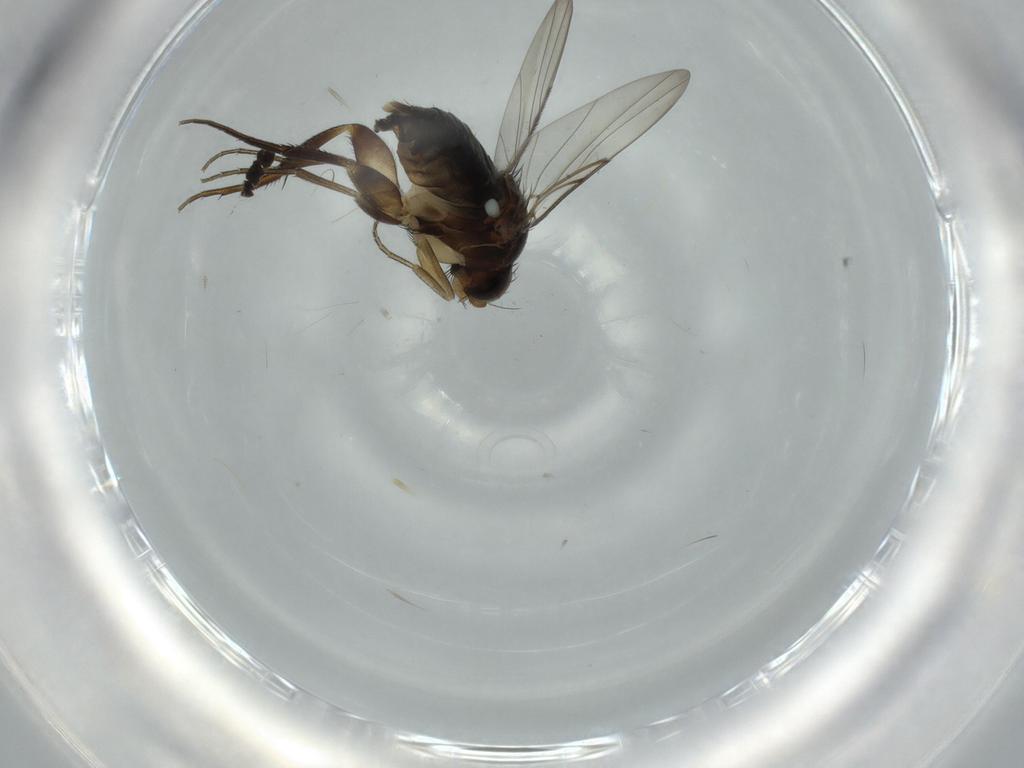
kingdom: Animalia
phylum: Arthropoda
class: Insecta
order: Diptera
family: Phoridae
